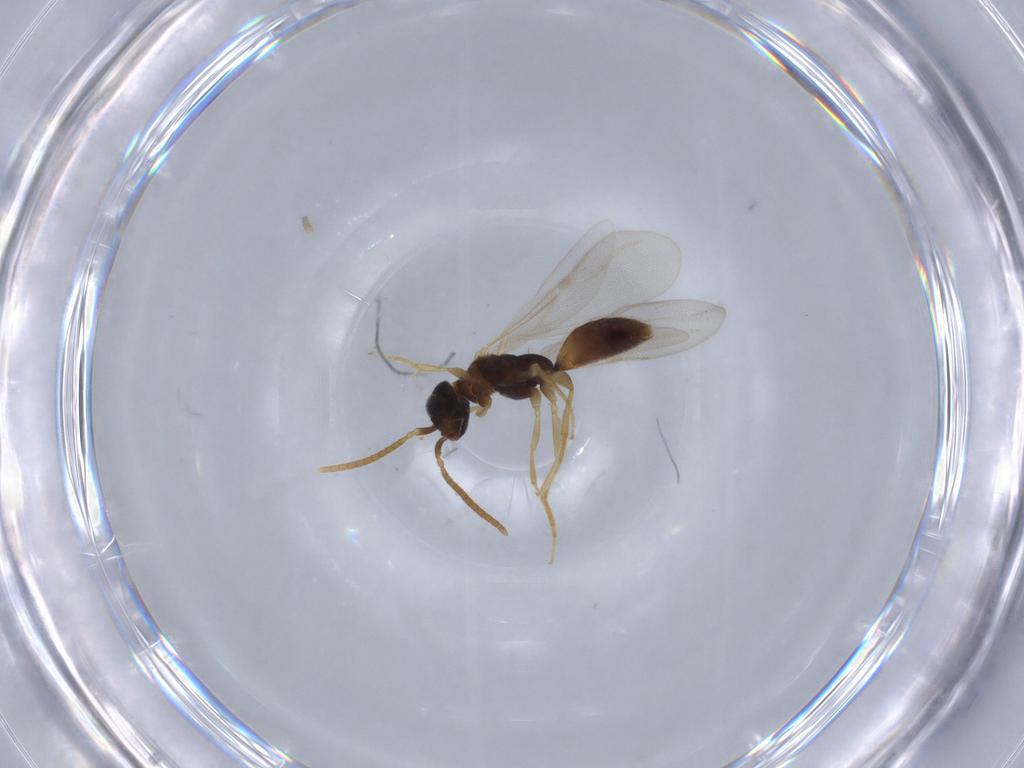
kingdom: Animalia
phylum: Arthropoda
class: Insecta
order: Hymenoptera
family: Bethylidae
